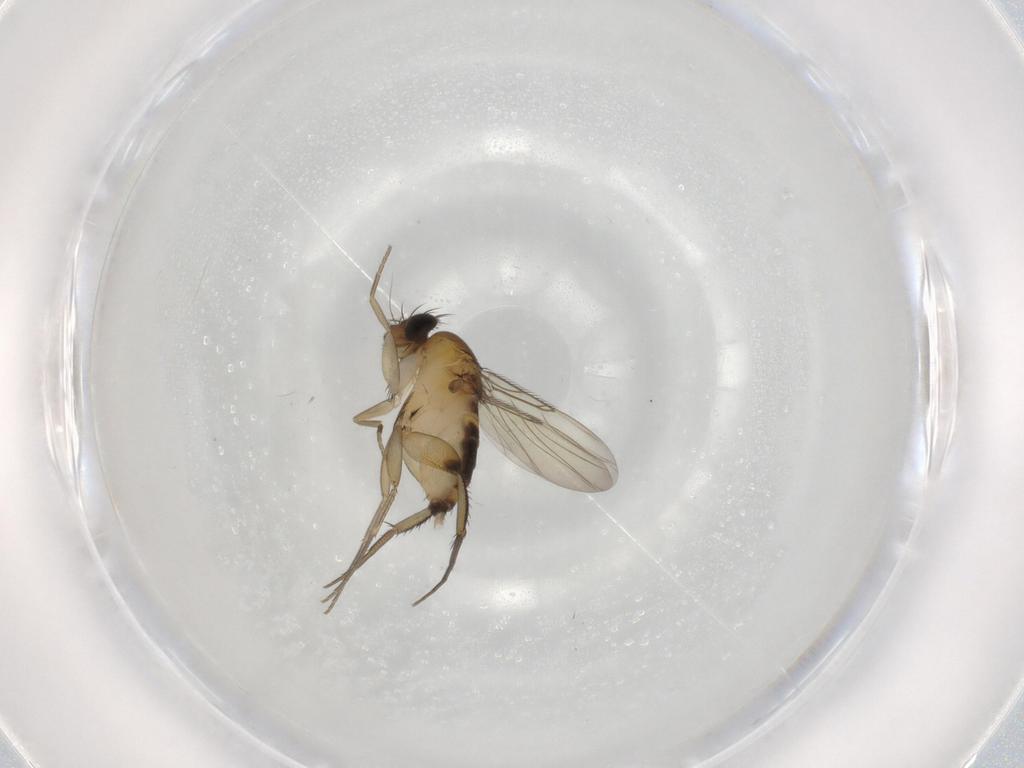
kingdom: Animalia
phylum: Arthropoda
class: Insecta
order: Diptera
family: Phoridae
